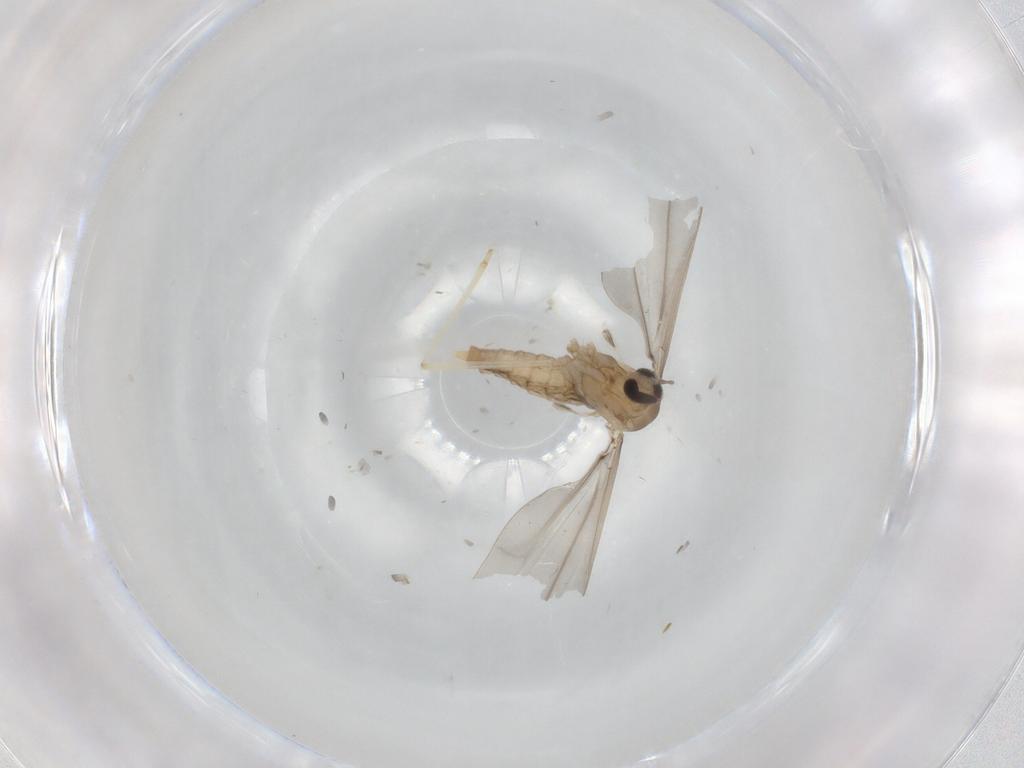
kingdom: Animalia
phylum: Arthropoda
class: Insecta
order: Diptera
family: Cecidomyiidae
